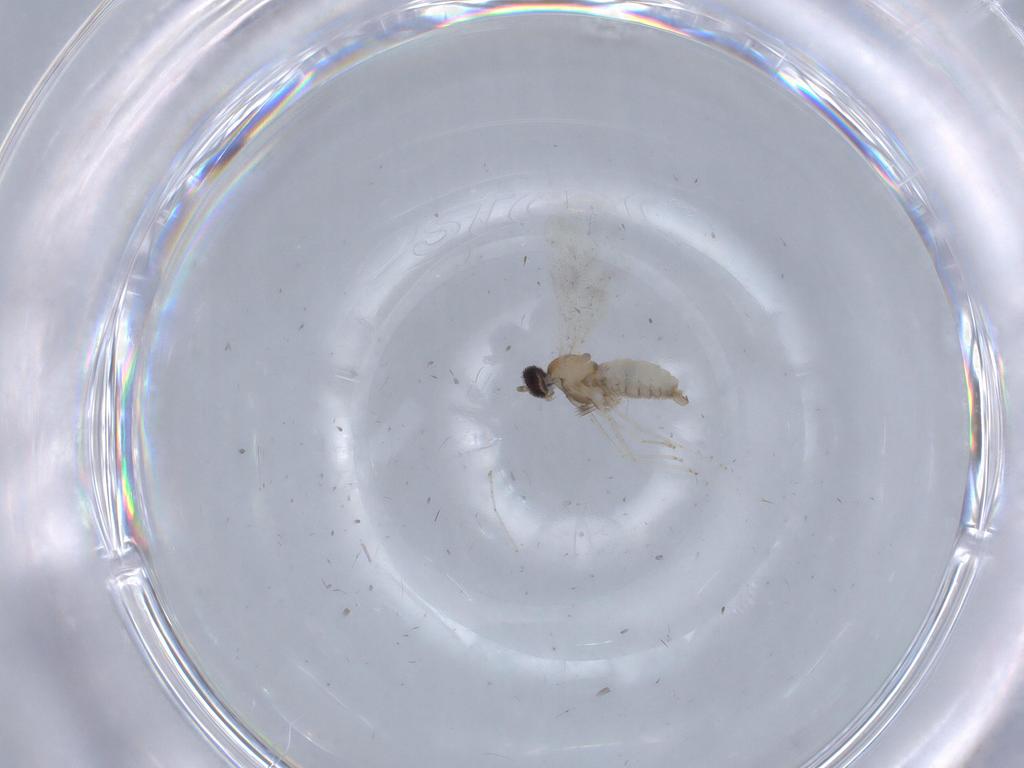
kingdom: Animalia
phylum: Arthropoda
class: Insecta
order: Diptera
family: Cecidomyiidae
